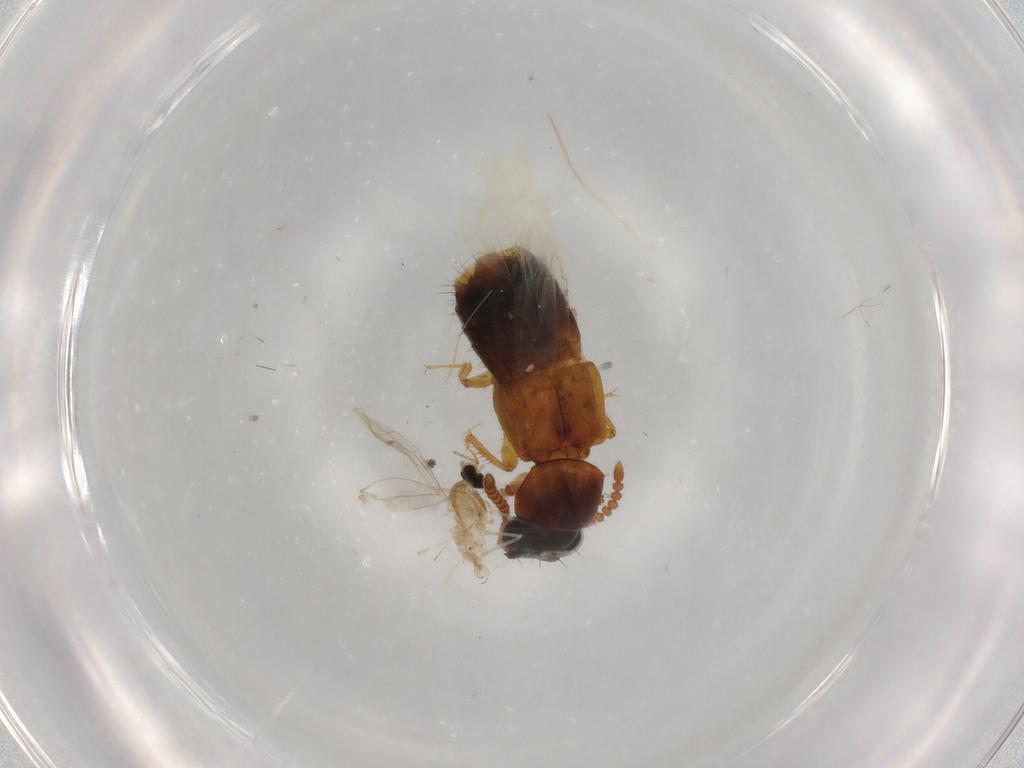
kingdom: Animalia
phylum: Arthropoda
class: Insecta
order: Coleoptera
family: Staphylinidae
